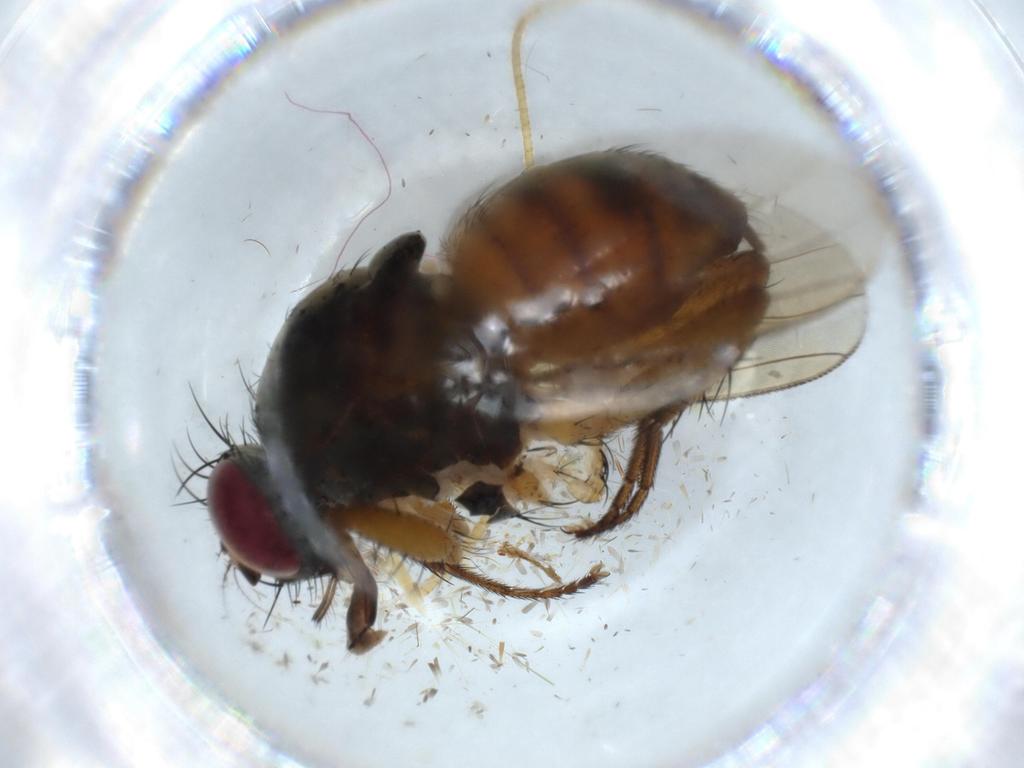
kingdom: Animalia
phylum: Arthropoda
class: Insecta
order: Diptera
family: Muscidae
